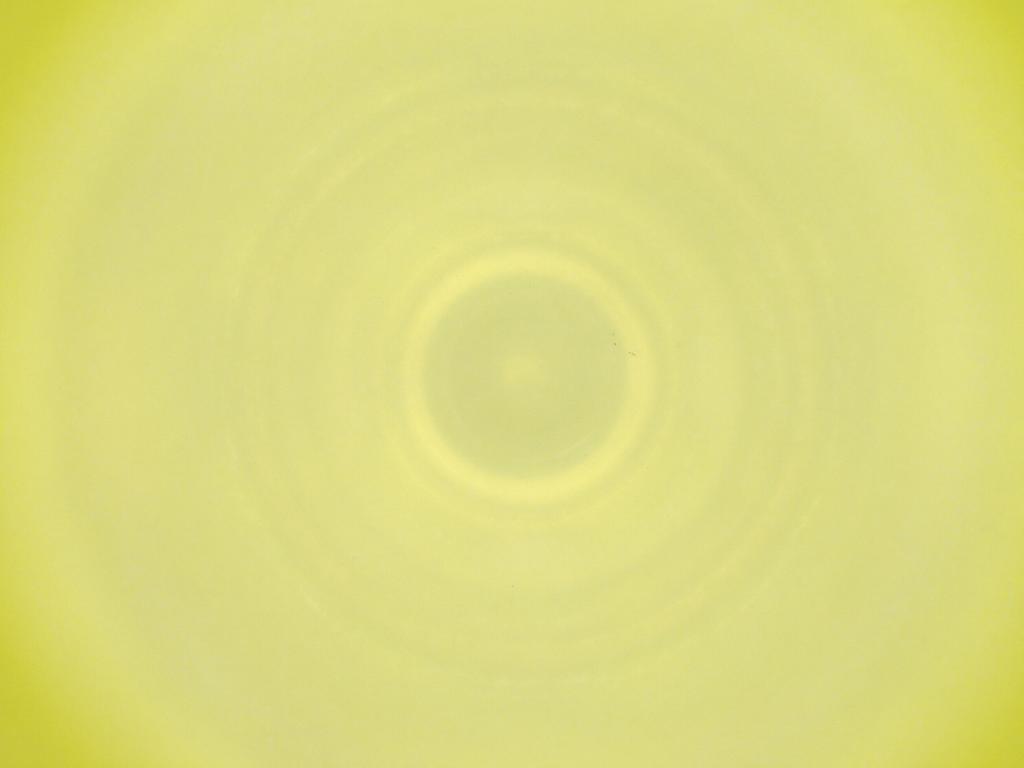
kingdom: Animalia
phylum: Arthropoda
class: Insecta
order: Diptera
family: Cecidomyiidae
